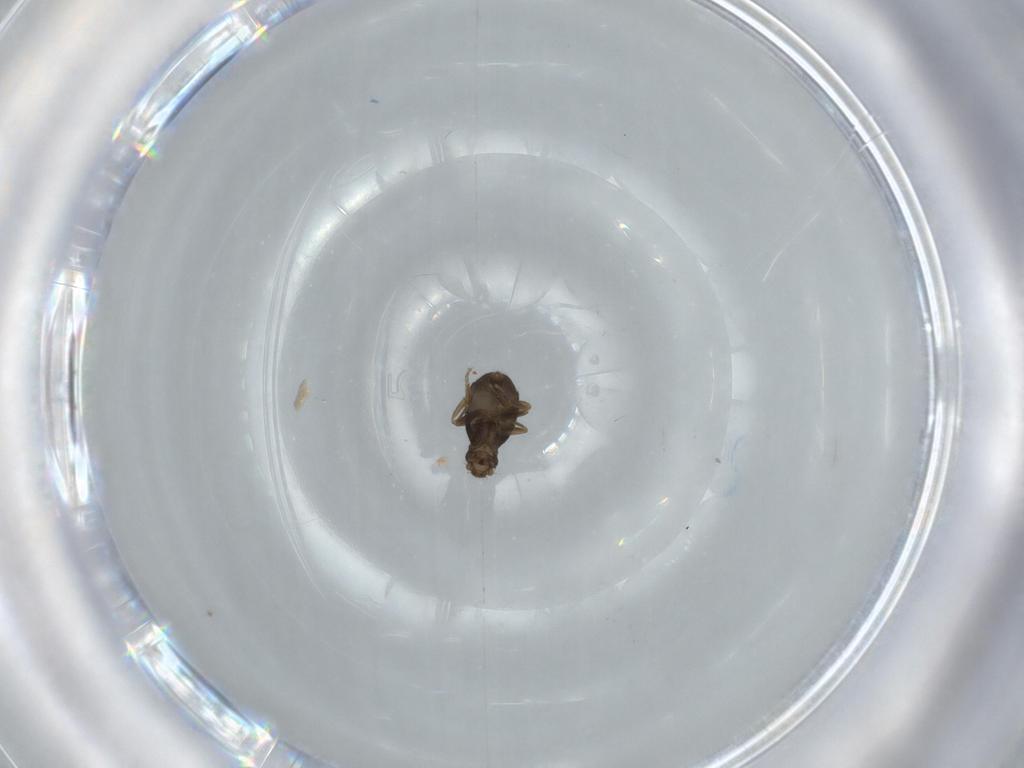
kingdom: Animalia
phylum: Arthropoda
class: Insecta
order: Diptera
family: Phoridae
